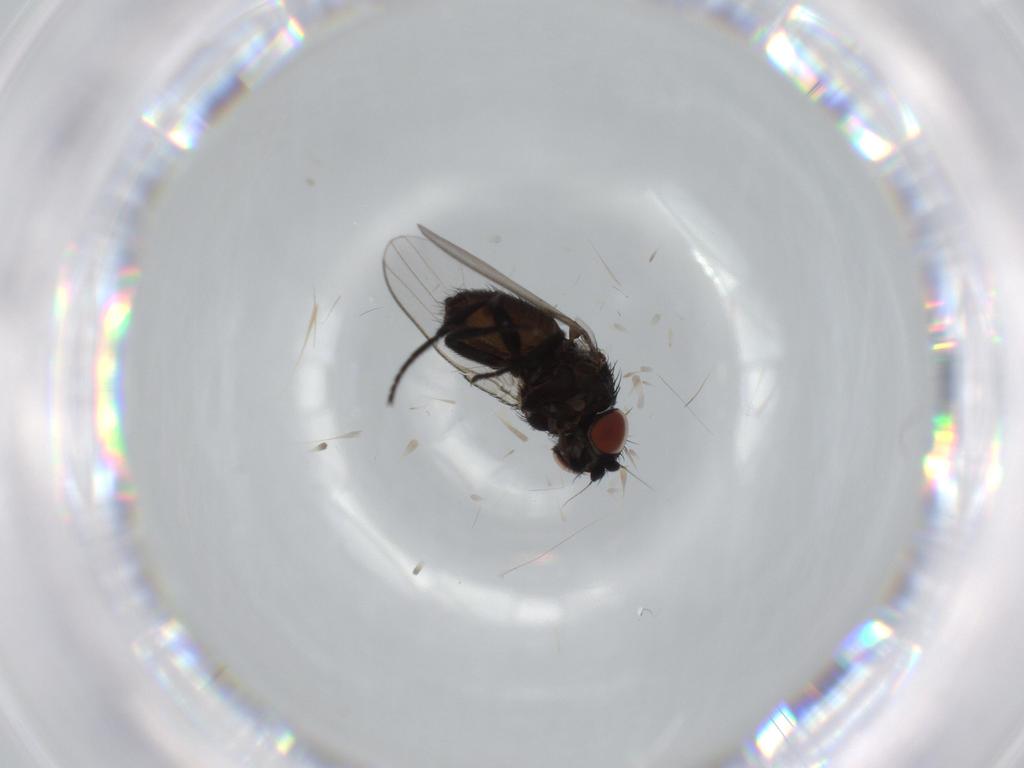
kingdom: Animalia
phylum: Arthropoda
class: Insecta
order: Diptera
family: Milichiidae
